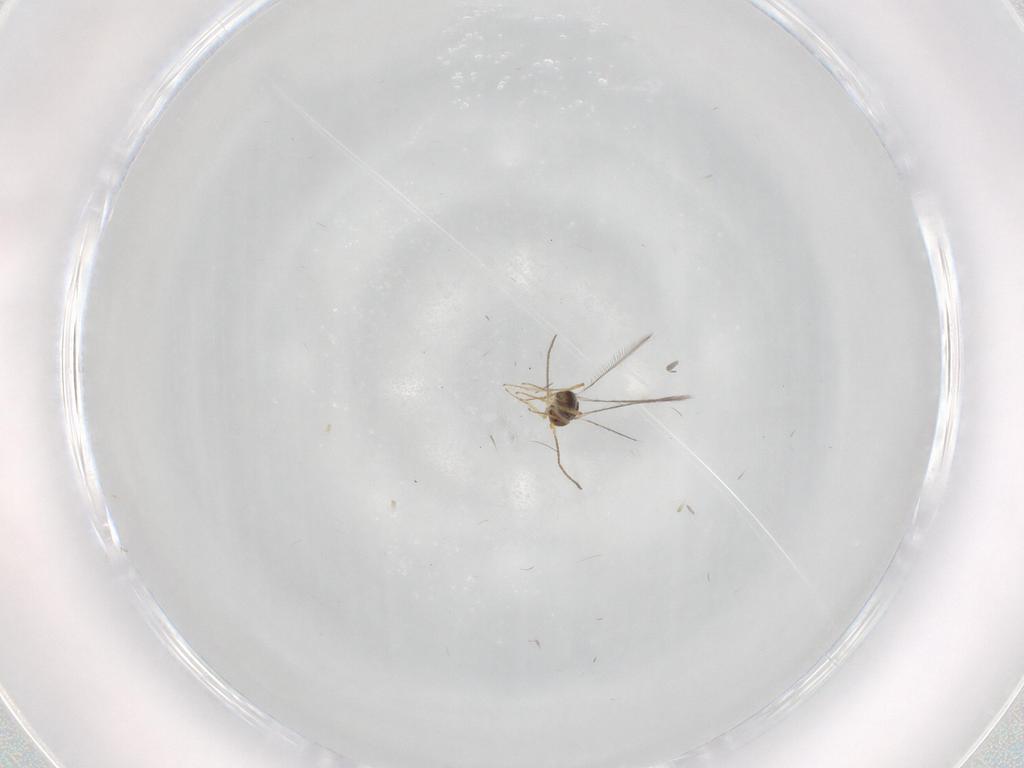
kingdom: Animalia
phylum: Arthropoda
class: Insecta
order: Hymenoptera
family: Mymaridae
